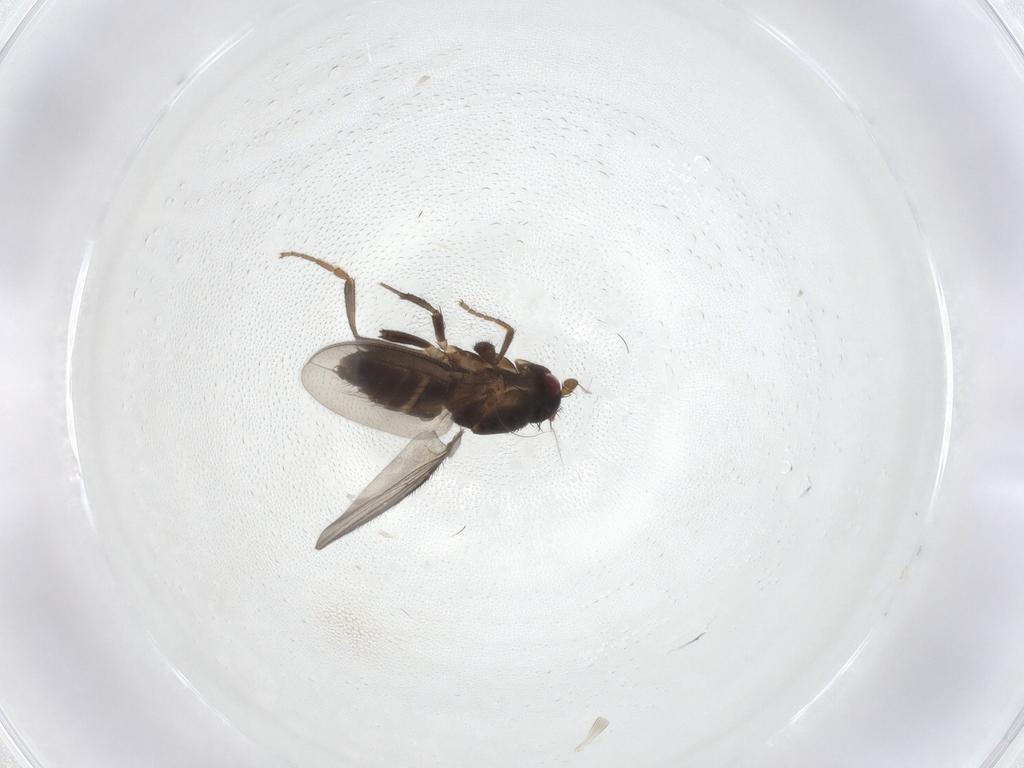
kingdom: Animalia
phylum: Arthropoda
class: Insecta
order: Diptera
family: Sphaeroceridae
